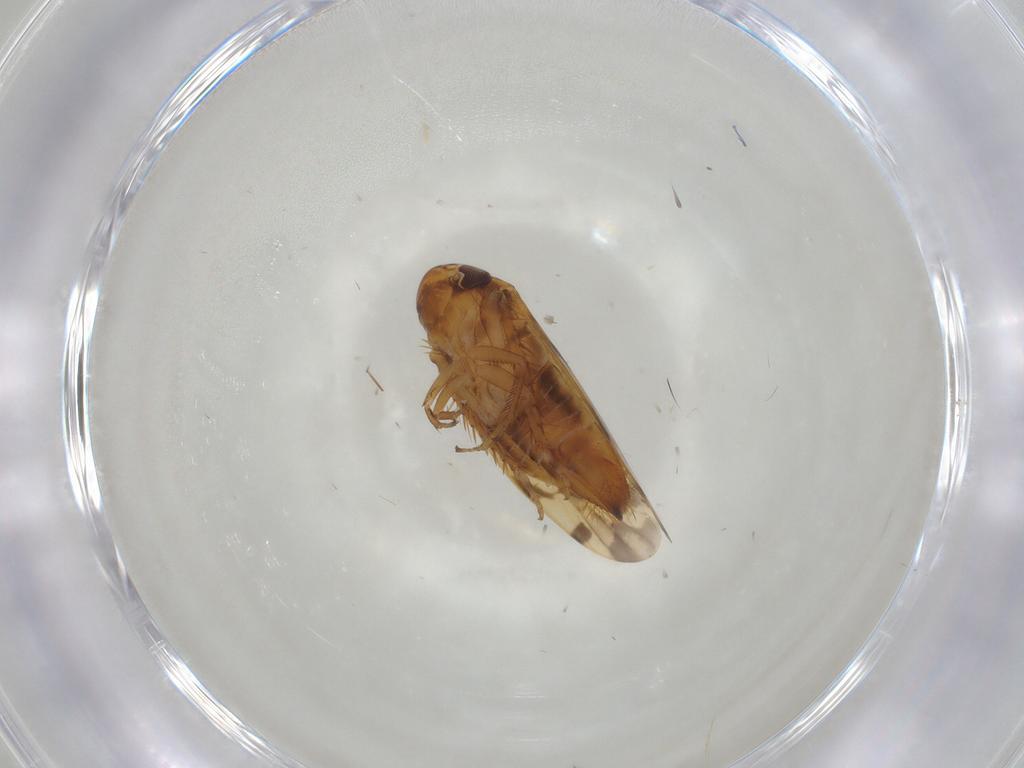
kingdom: Animalia
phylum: Arthropoda
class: Insecta
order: Hemiptera
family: Cicadellidae
